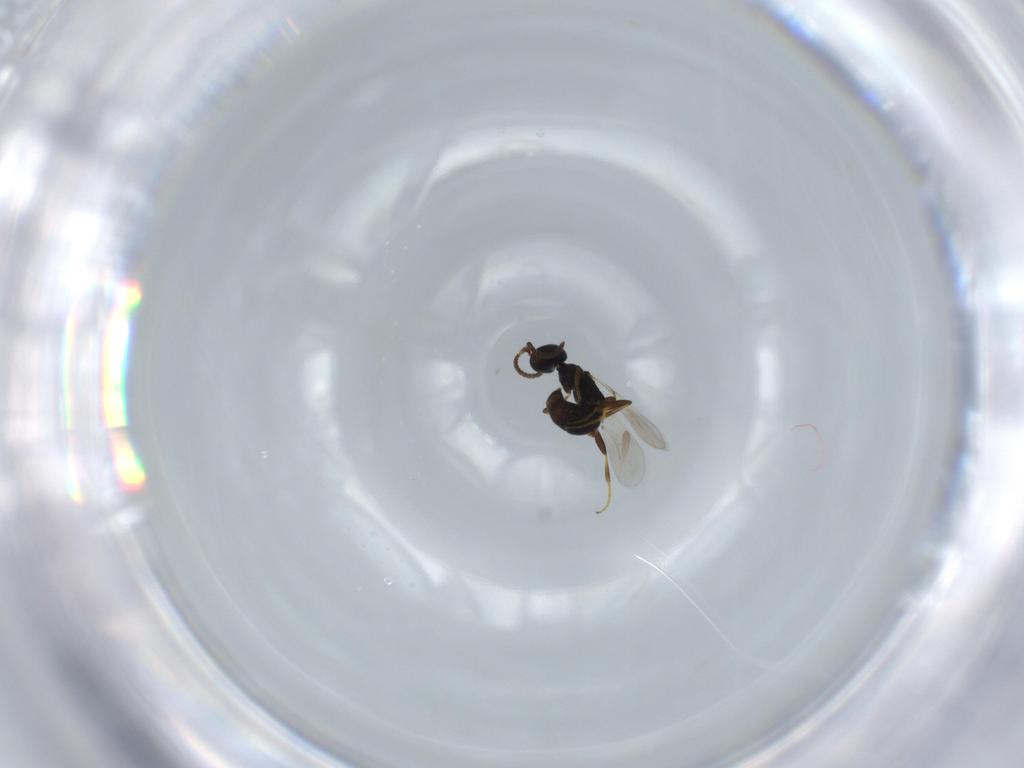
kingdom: Animalia
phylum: Arthropoda
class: Insecta
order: Hymenoptera
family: Bethylidae
